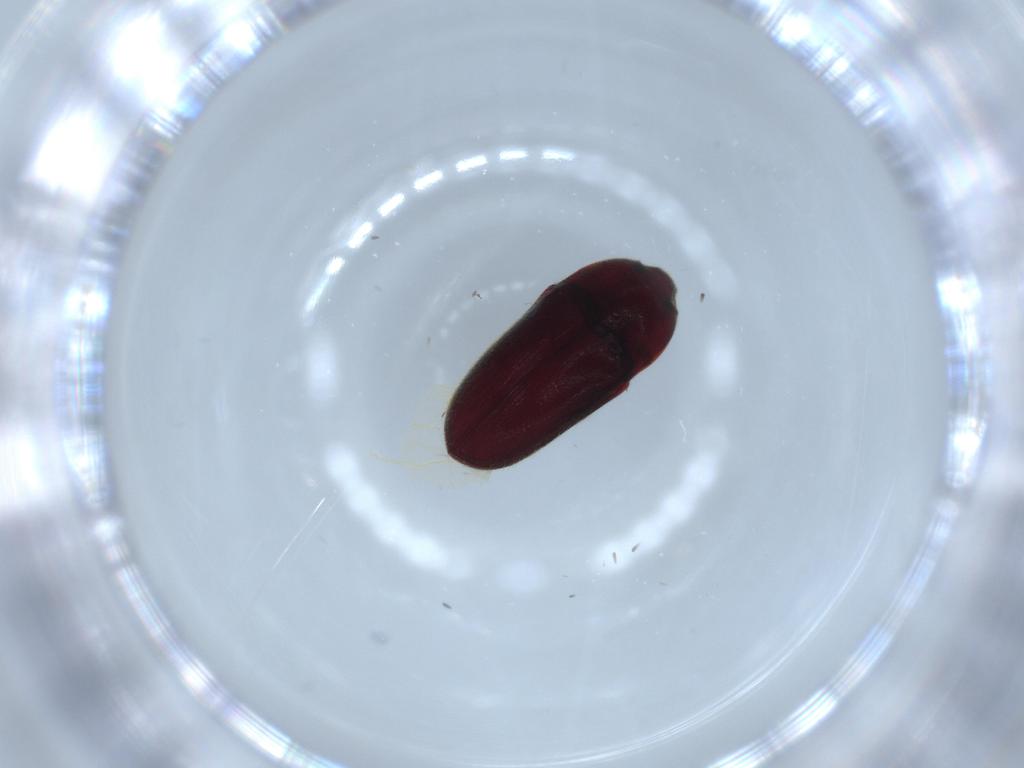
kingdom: Animalia
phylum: Arthropoda
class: Insecta
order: Coleoptera
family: Throscidae
